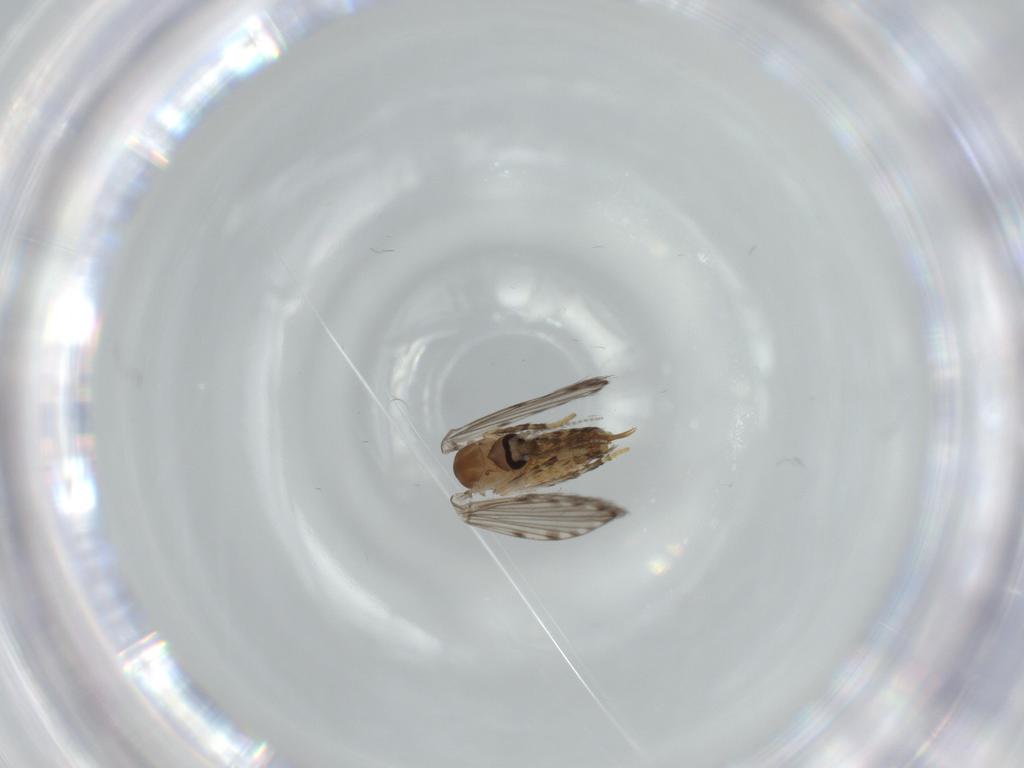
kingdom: Animalia
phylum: Arthropoda
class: Insecta
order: Diptera
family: Sciaridae
